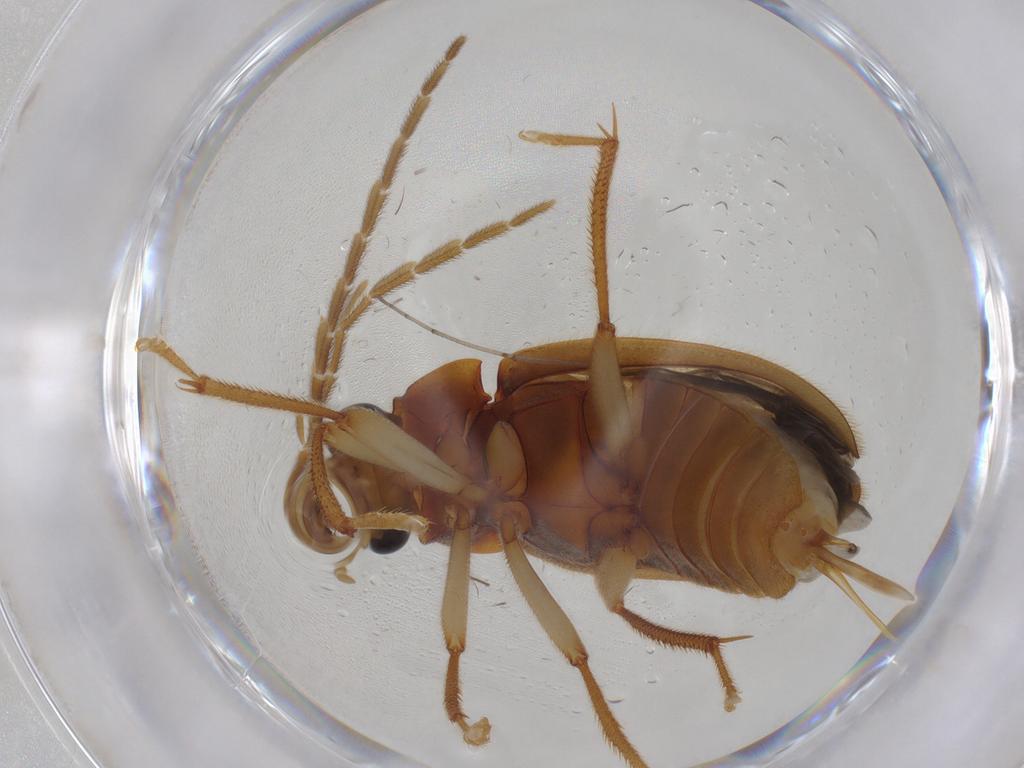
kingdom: Animalia
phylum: Arthropoda
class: Insecta
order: Coleoptera
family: Ptilodactylidae
